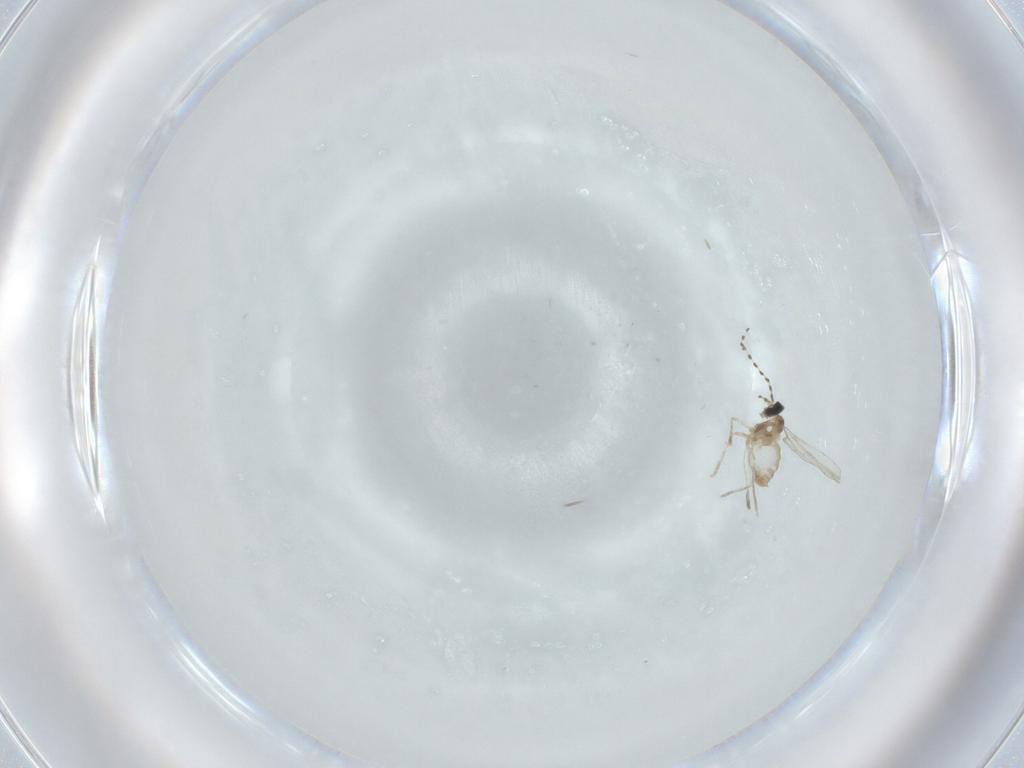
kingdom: Animalia
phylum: Arthropoda
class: Insecta
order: Diptera
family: Cecidomyiidae
